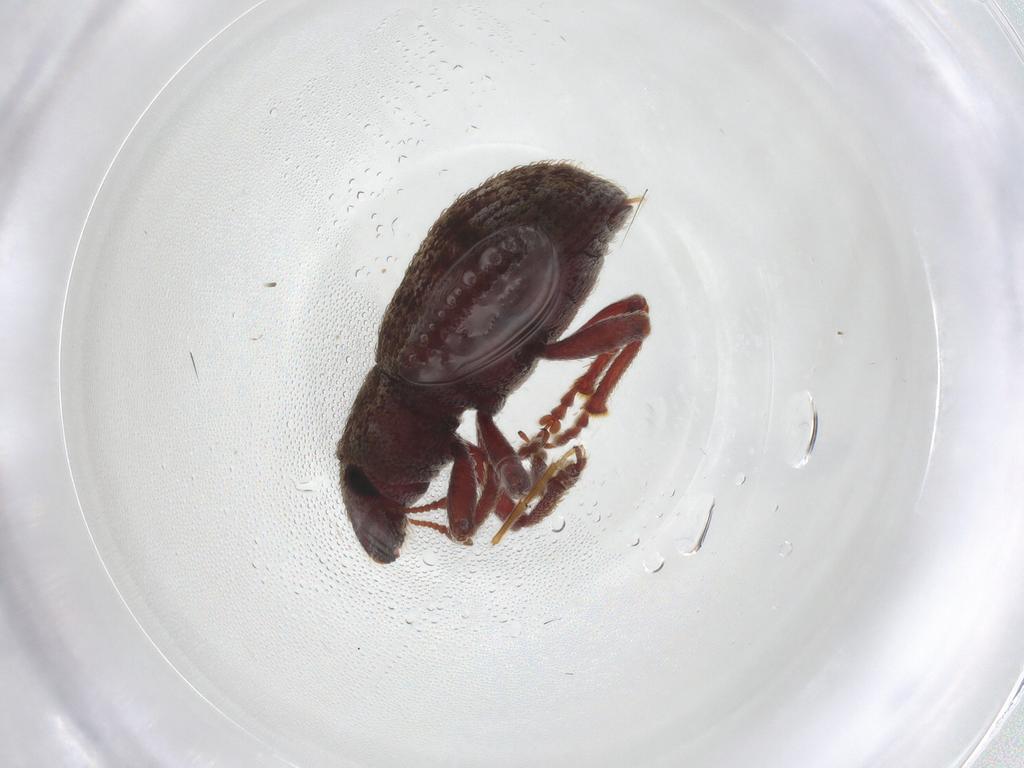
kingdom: Animalia
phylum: Arthropoda
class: Insecta
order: Coleoptera
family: Curculionidae
